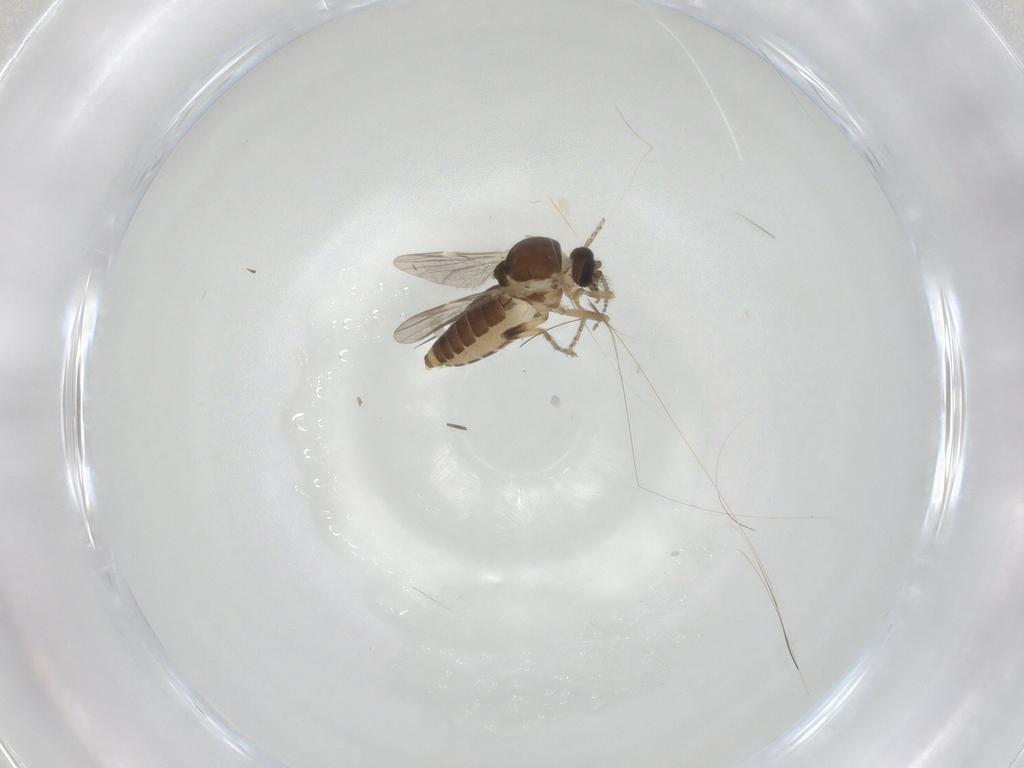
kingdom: Animalia
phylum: Arthropoda
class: Insecta
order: Diptera
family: Ceratopogonidae
